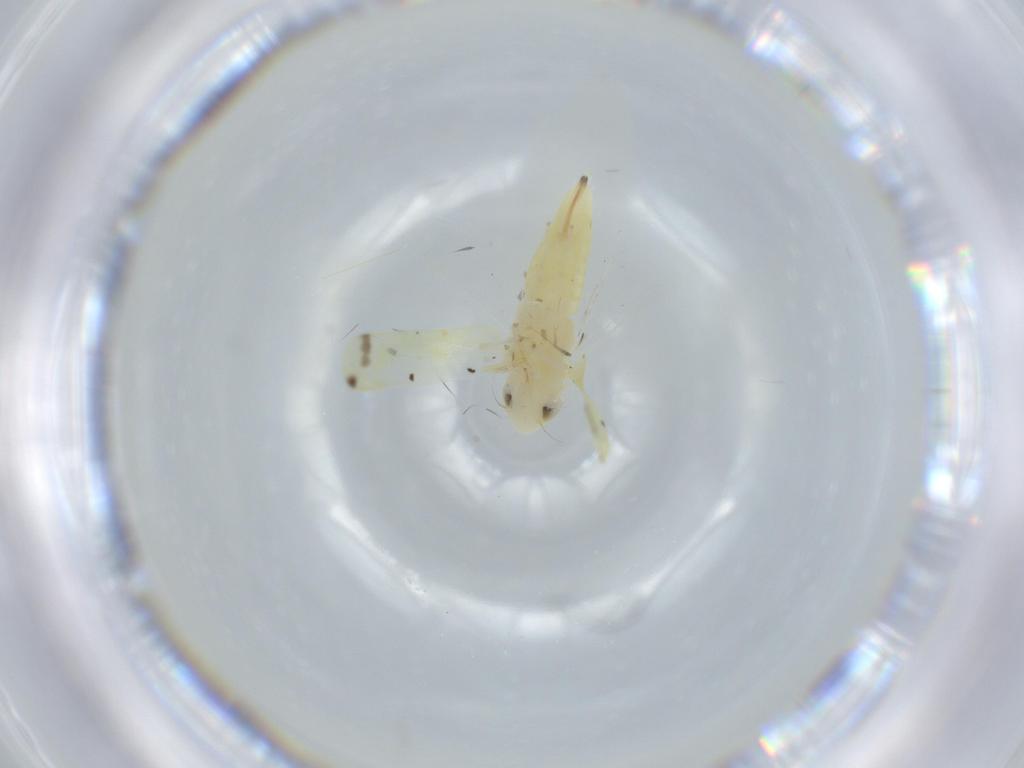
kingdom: Animalia
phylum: Arthropoda
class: Insecta
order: Hemiptera
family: Cicadellidae
